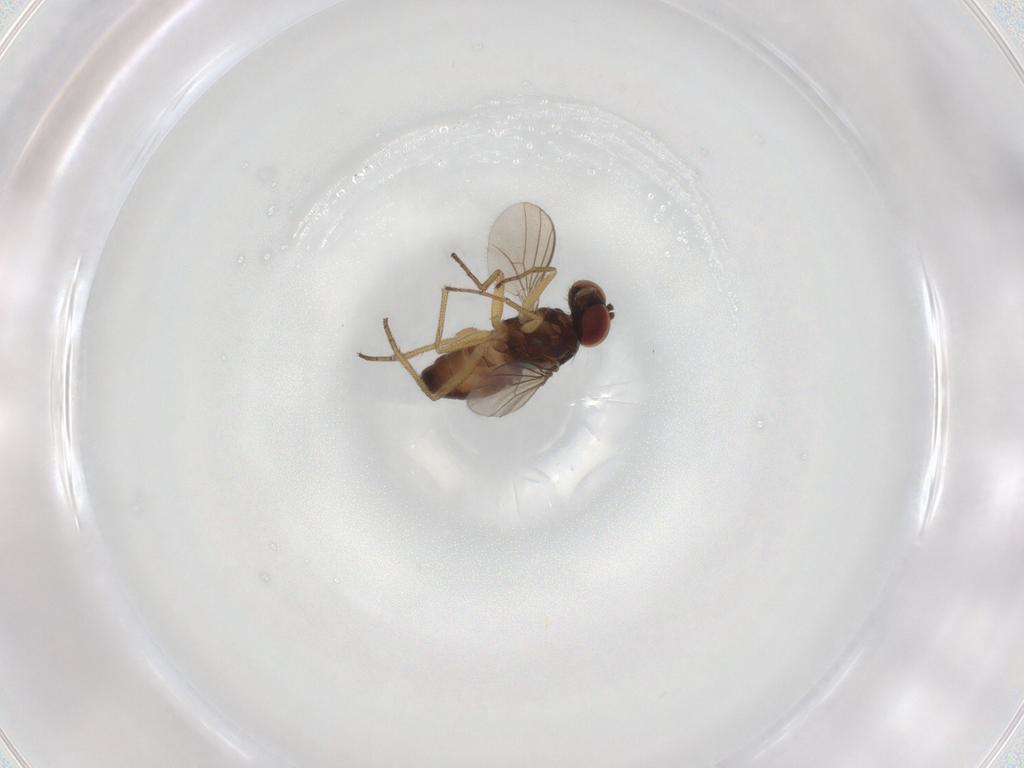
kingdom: Animalia
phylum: Arthropoda
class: Insecta
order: Diptera
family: Dolichopodidae
